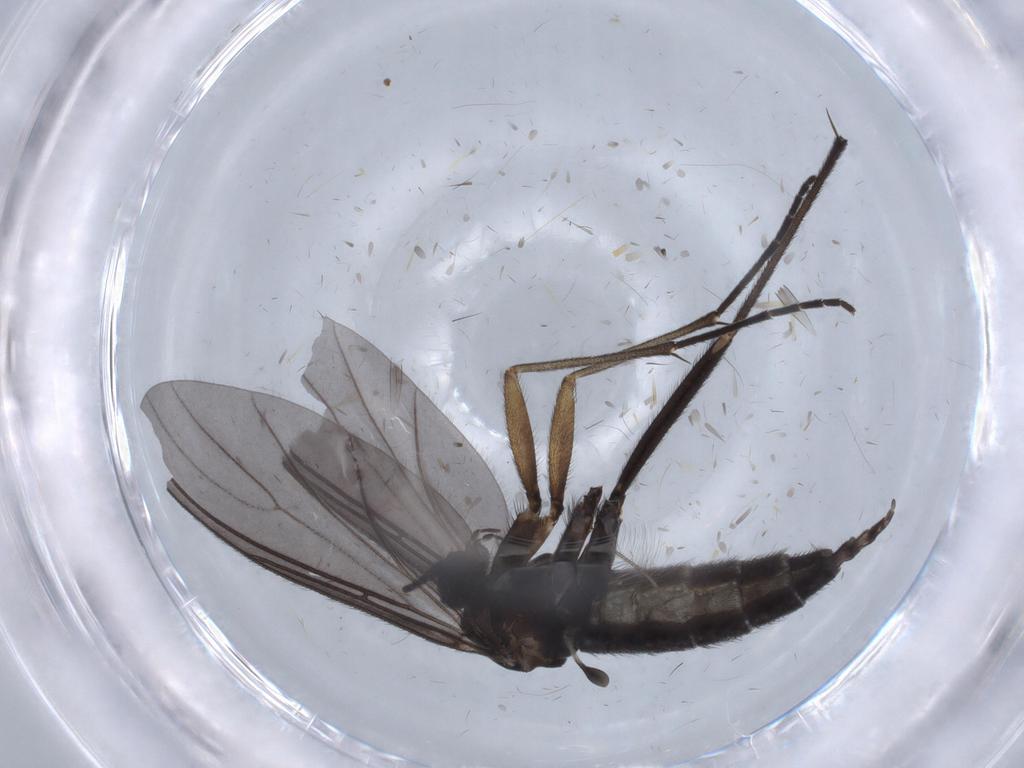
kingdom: Animalia
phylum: Arthropoda
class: Insecta
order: Diptera
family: Sciaridae
